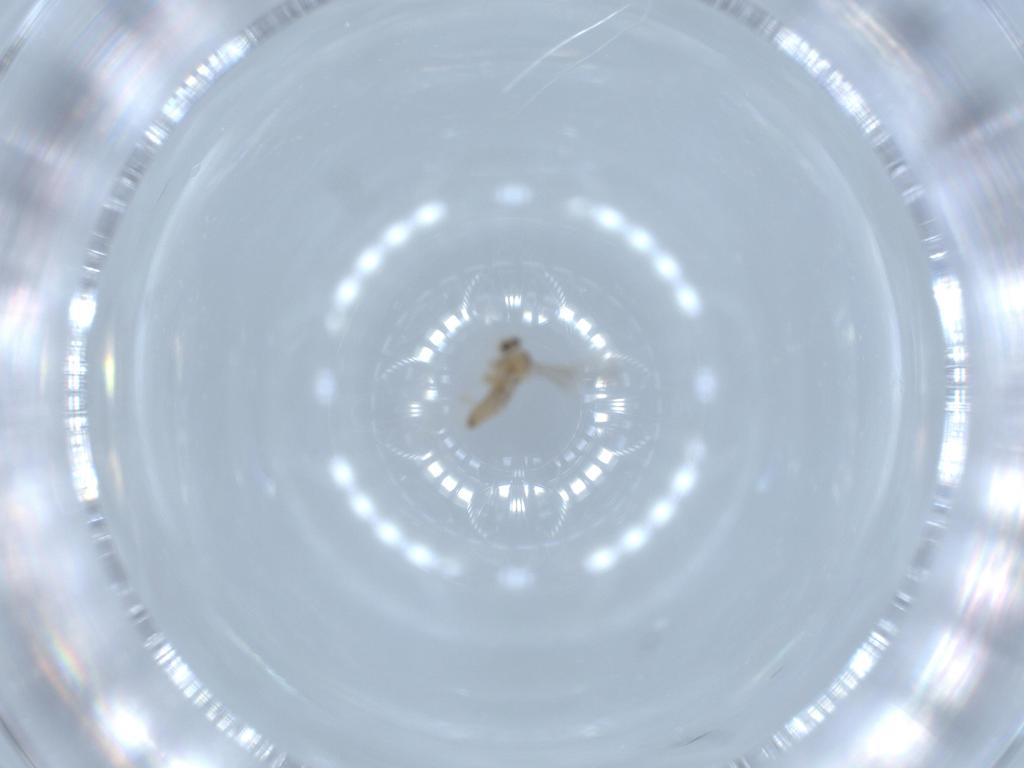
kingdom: Animalia
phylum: Arthropoda
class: Insecta
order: Diptera
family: Cecidomyiidae
